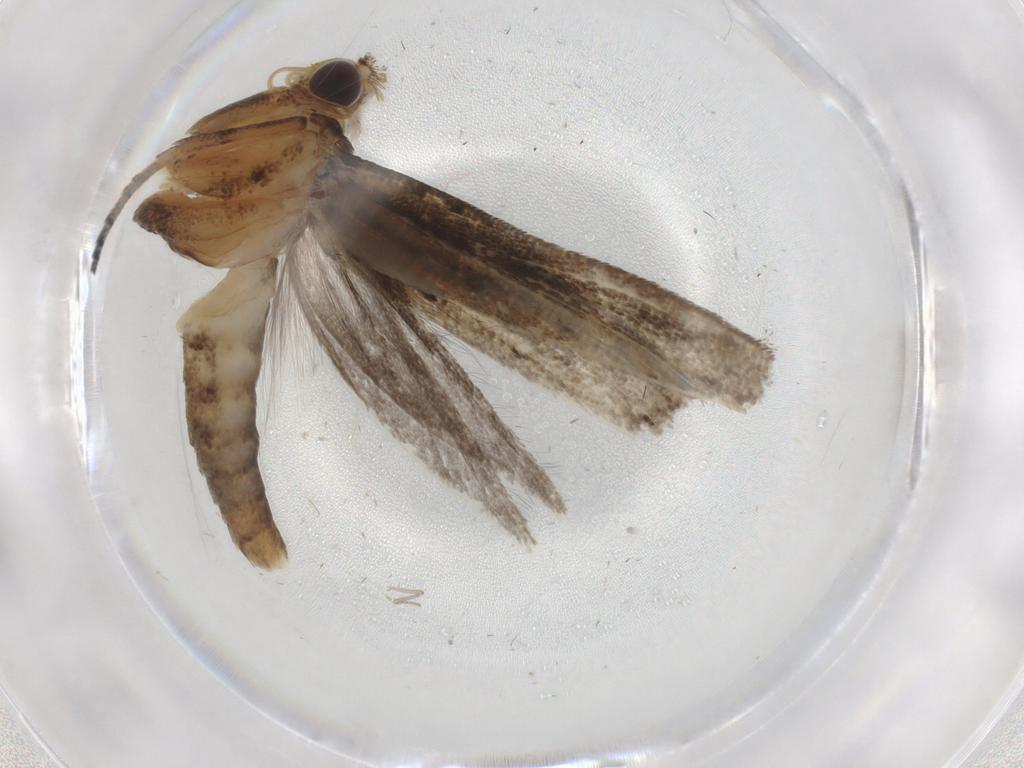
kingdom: Animalia
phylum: Arthropoda
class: Insecta
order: Lepidoptera
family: Yponomeutidae
